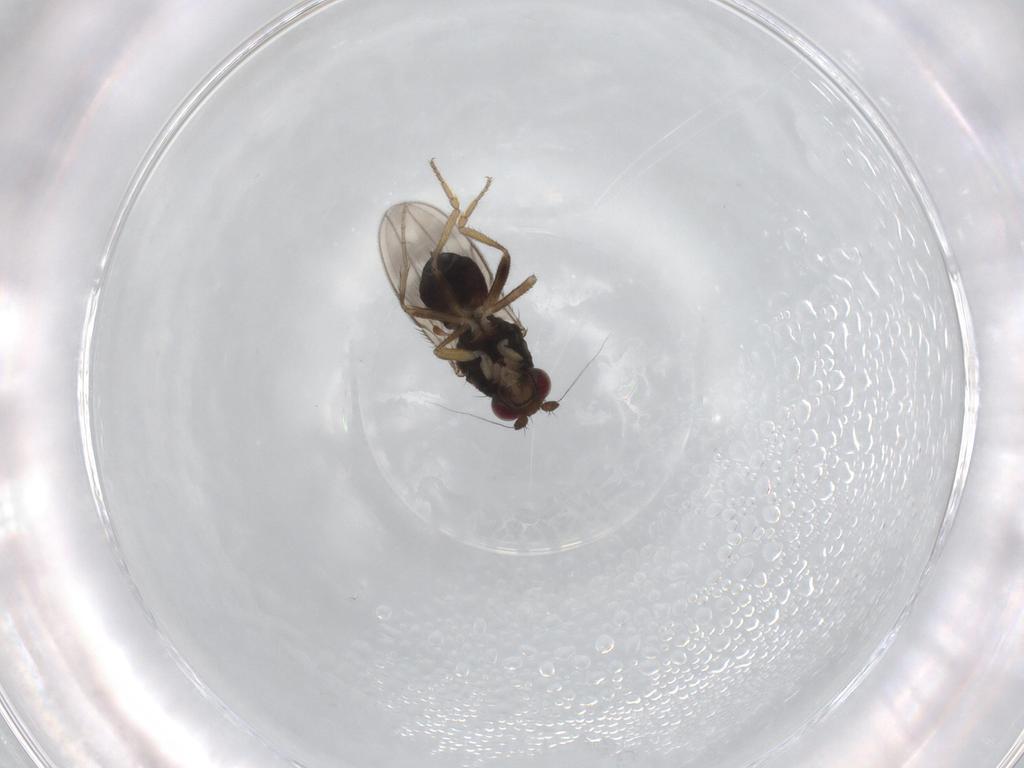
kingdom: Animalia
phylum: Arthropoda
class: Insecta
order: Diptera
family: Sphaeroceridae
